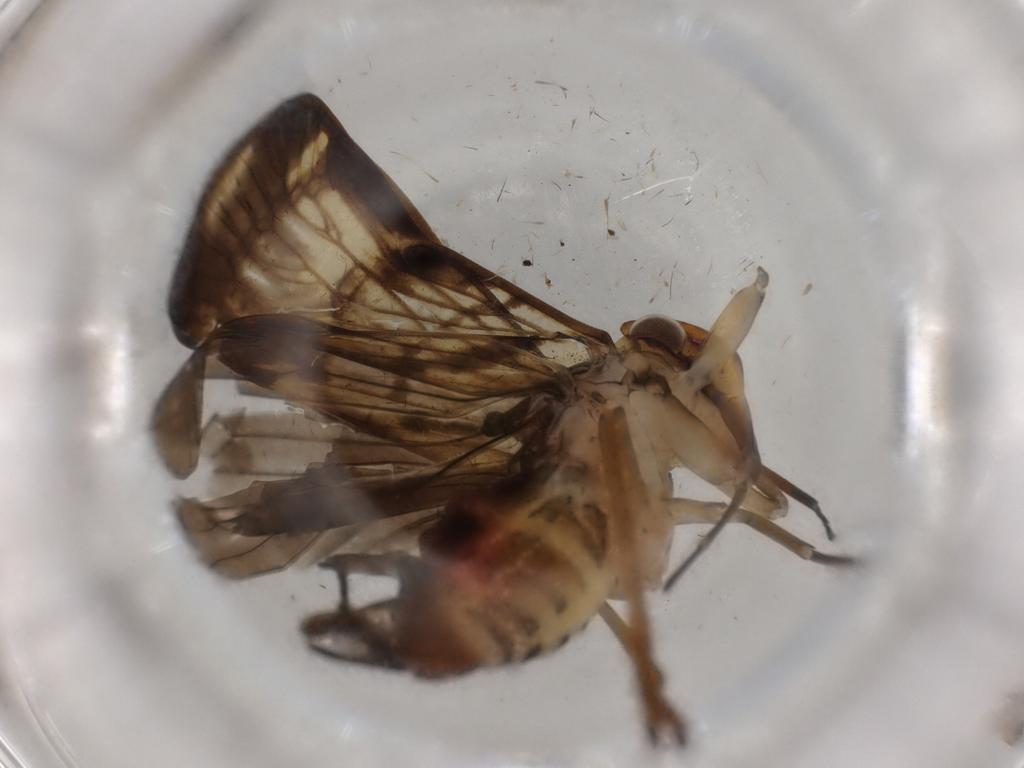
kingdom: Animalia
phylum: Arthropoda
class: Insecta
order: Hemiptera
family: Cixiidae
